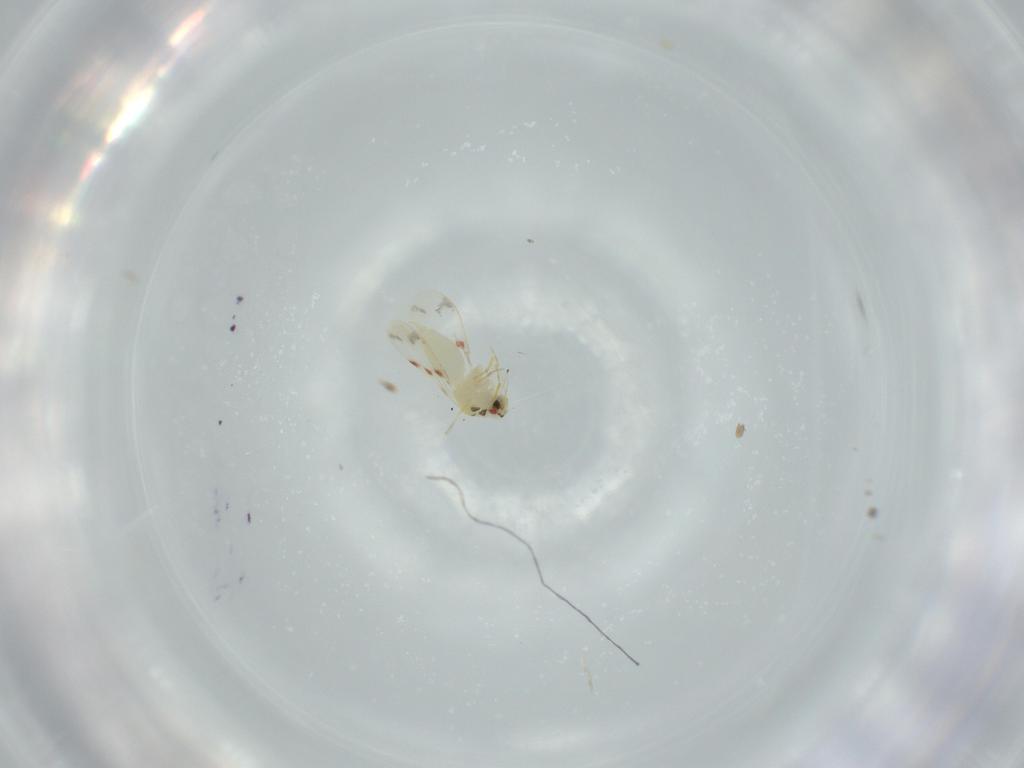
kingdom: Animalia
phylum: Arthropoda
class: Insecta
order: Hemiptera
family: Aleyrodidae
